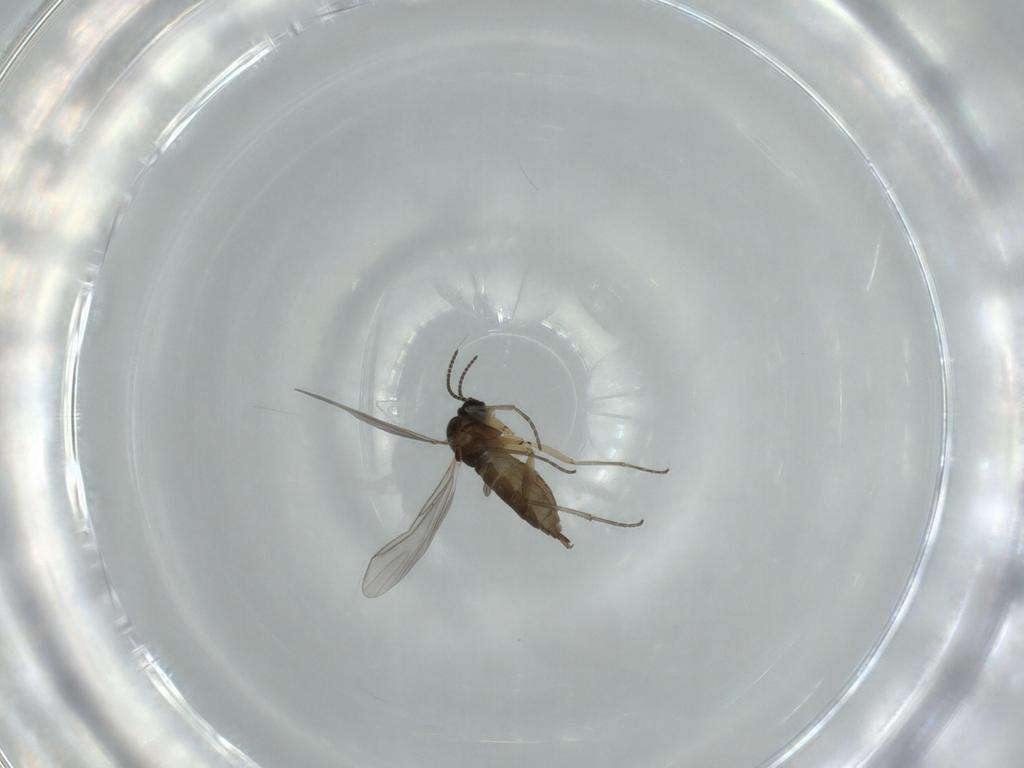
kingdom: Animalia
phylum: Arthropoda
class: Insecta
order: Diptera
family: Sciaridae
